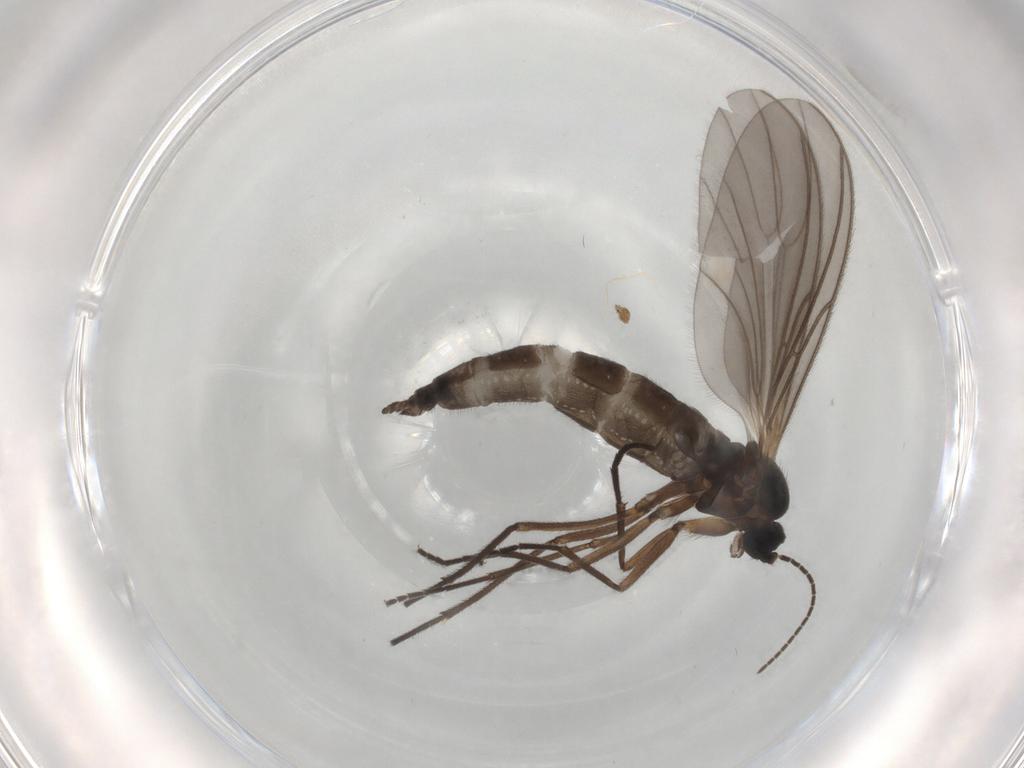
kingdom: Animalia
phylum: Arthropoda
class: Insecta
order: Diptera
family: Sciaridae
